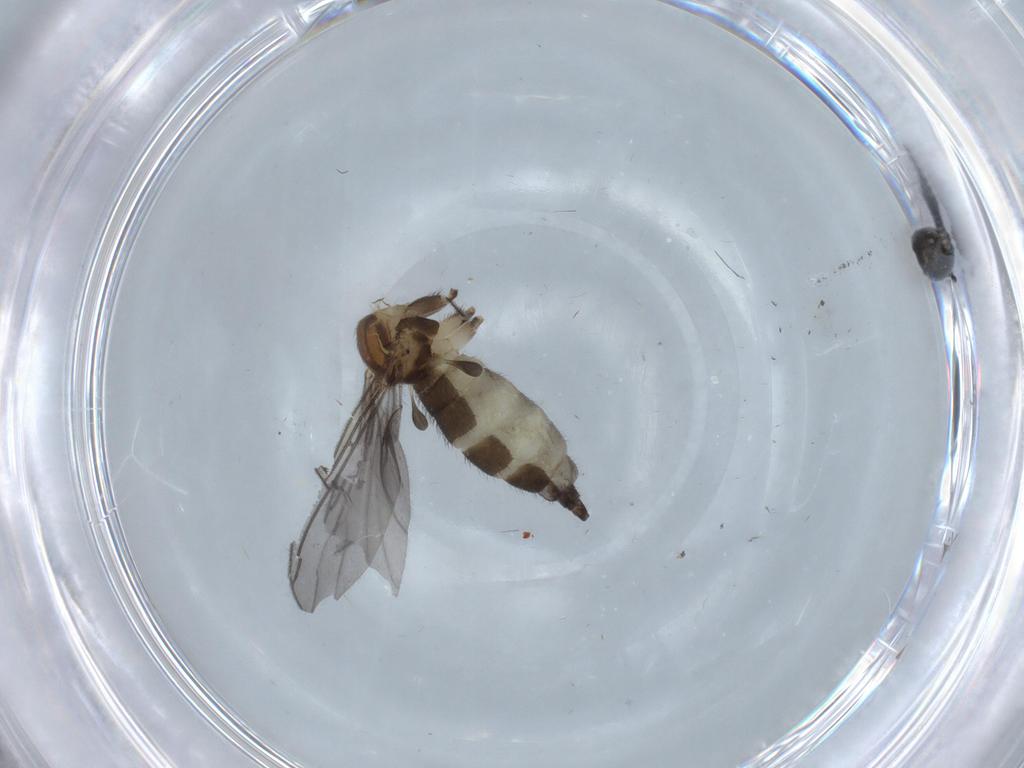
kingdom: Animalia
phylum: Arthropoda
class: Insecta
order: Diptera
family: Sciaridae
